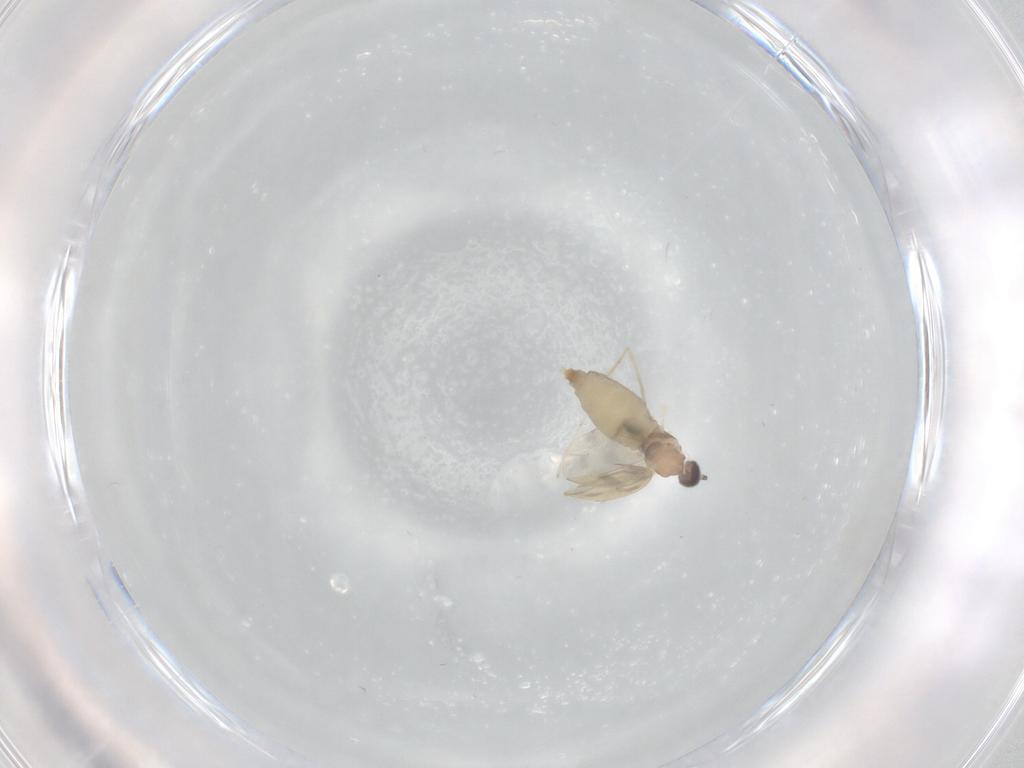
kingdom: Animalia
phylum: Arthropoda
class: Insecta
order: Diptera
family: Cecidomyiidae
